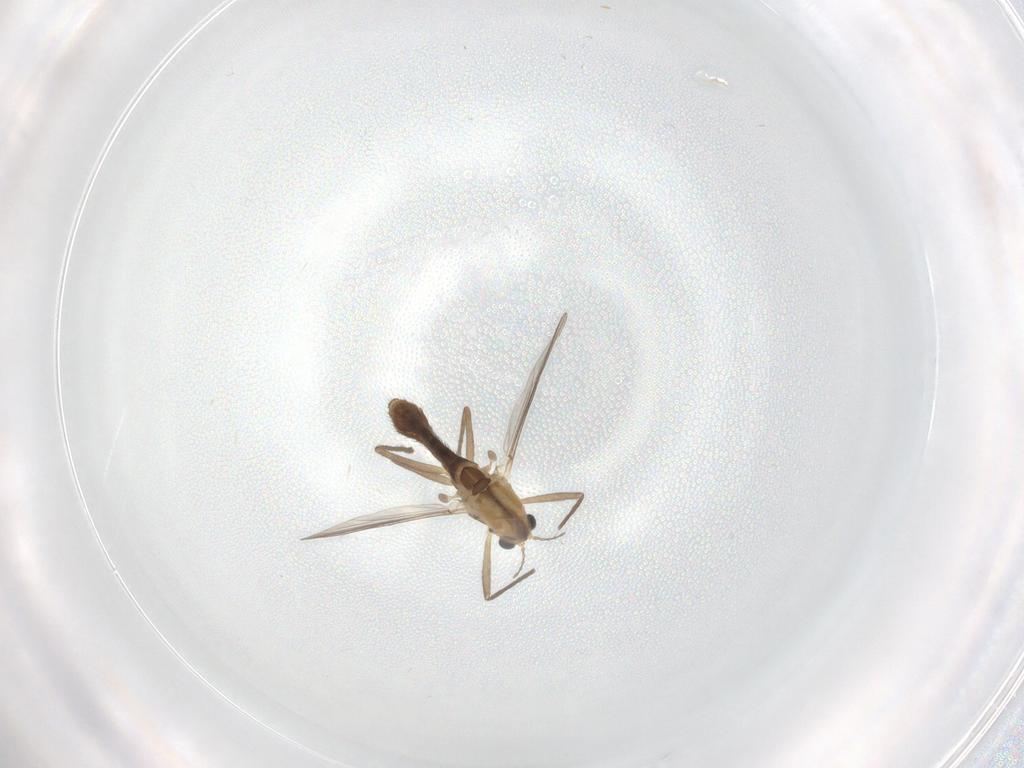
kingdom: Animalia
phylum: Arthropoda
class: Insecta
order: Diptera
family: Chironomidae
